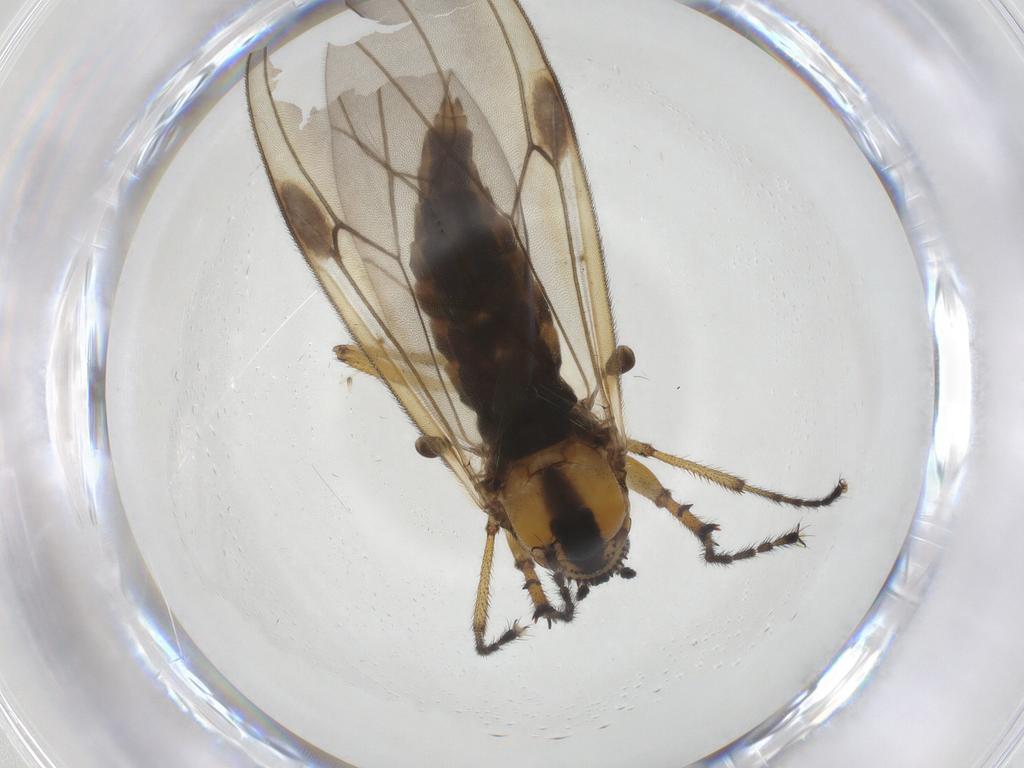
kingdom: Animalia
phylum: Arthropoda
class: Insecta
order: Diptera
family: Bibionidae
